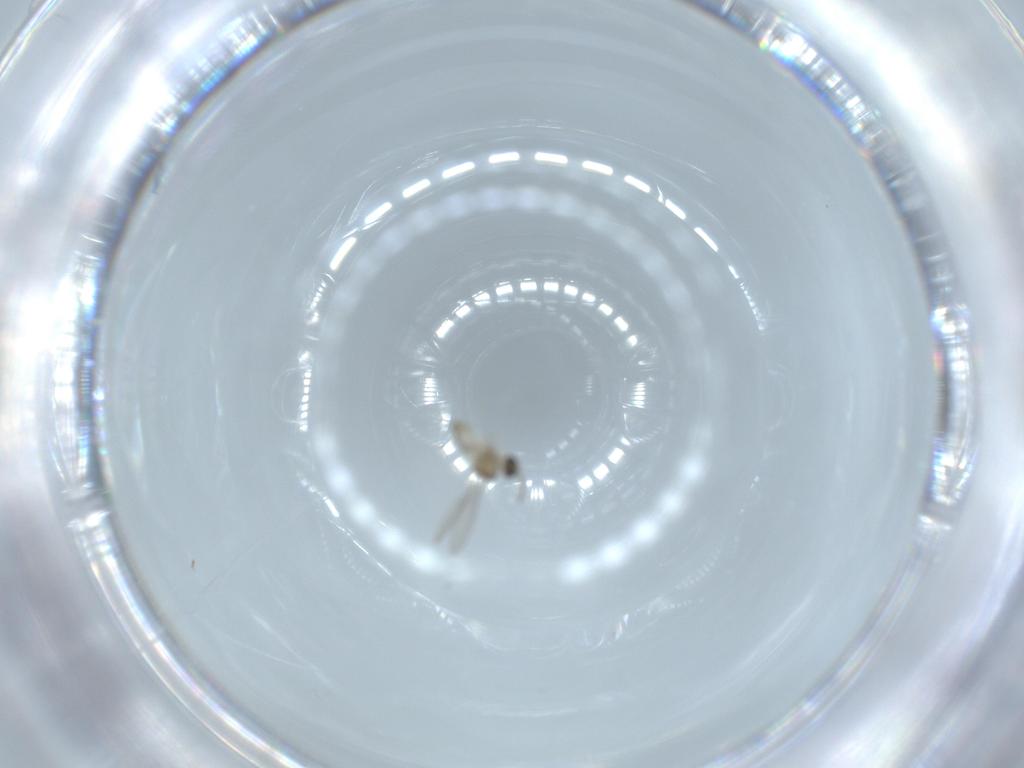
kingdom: Animalia
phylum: Arthropoda
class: Insecta
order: Diptera
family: Cecidomyiidae
